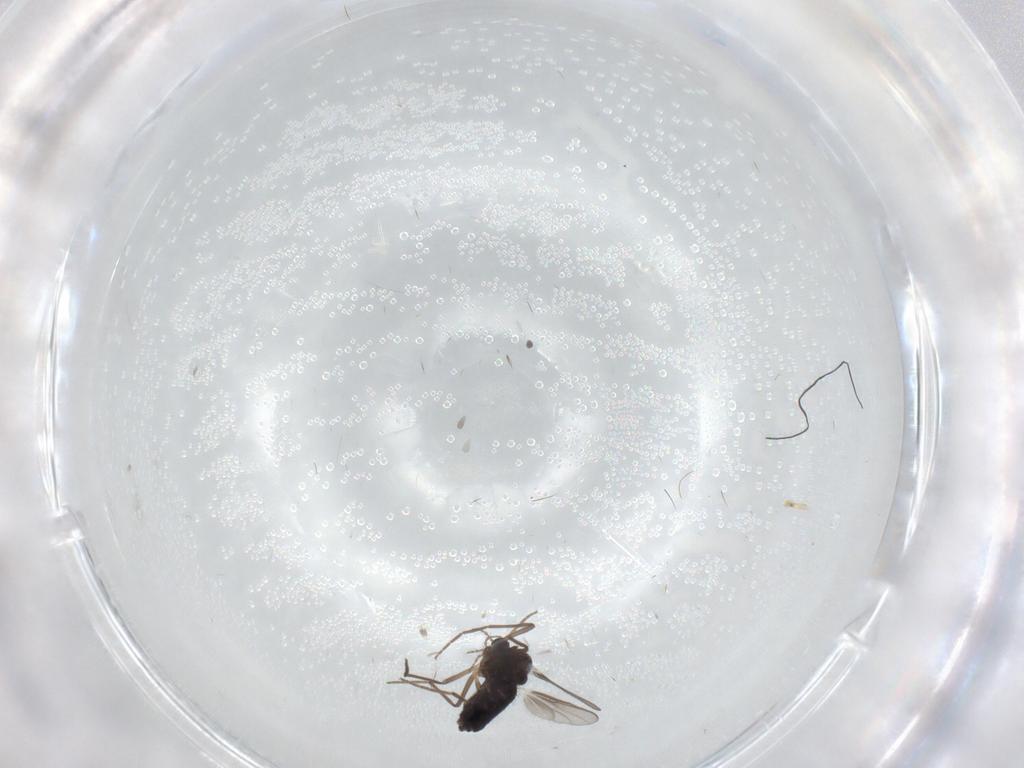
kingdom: Animalia
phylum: Arthropoda
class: Insecta
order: Diptera
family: Chironomidae
